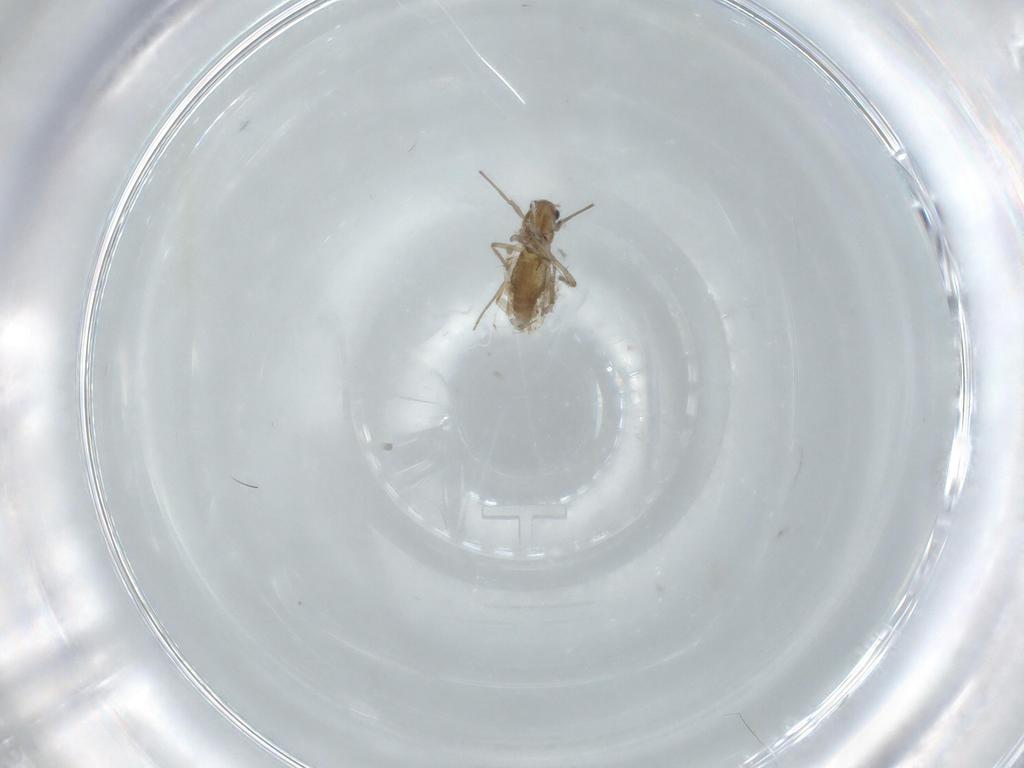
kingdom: Animalia
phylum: Arthropoda
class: Insecta
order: Diptera
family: Chironomidae
